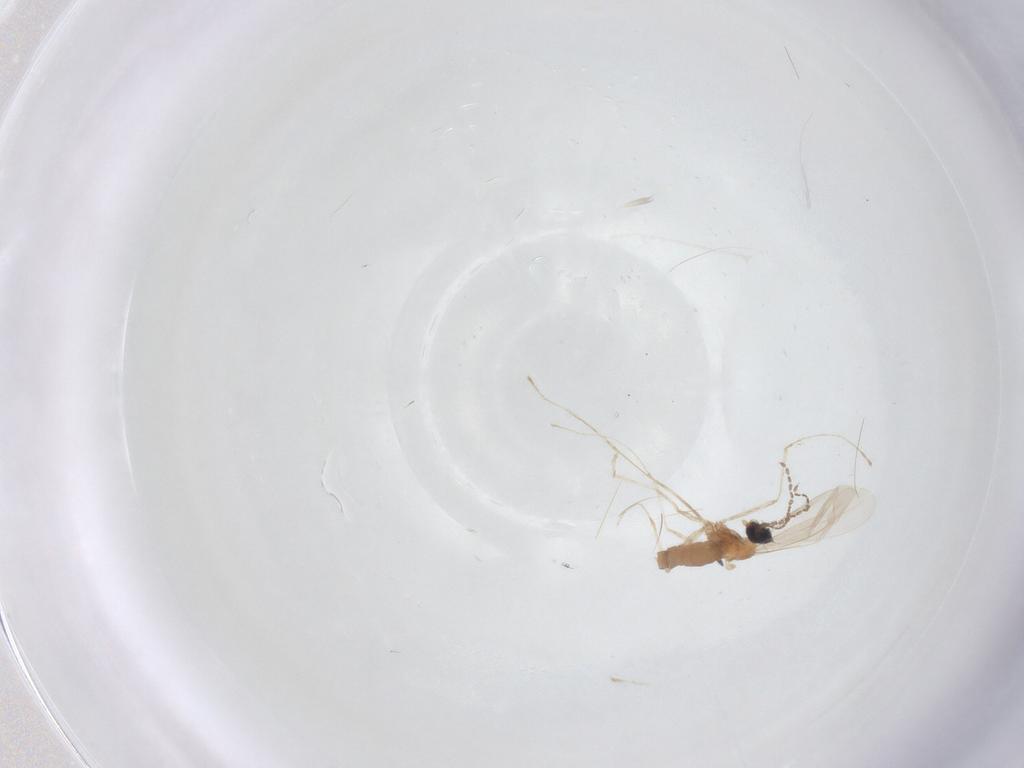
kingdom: Animalia
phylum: Arthropoda
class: Insecta
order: Diptera
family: Cecidomyiidae
